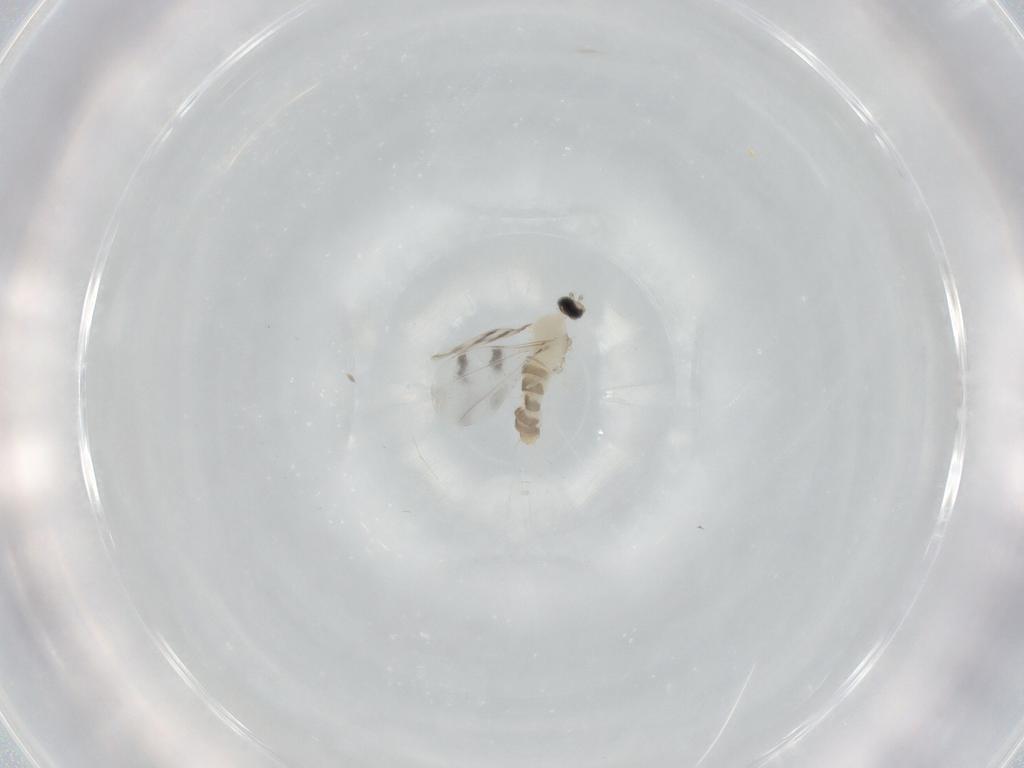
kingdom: Animalia
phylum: Arthropoda
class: Insecta
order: Diptera
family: Cecidomyiidae
